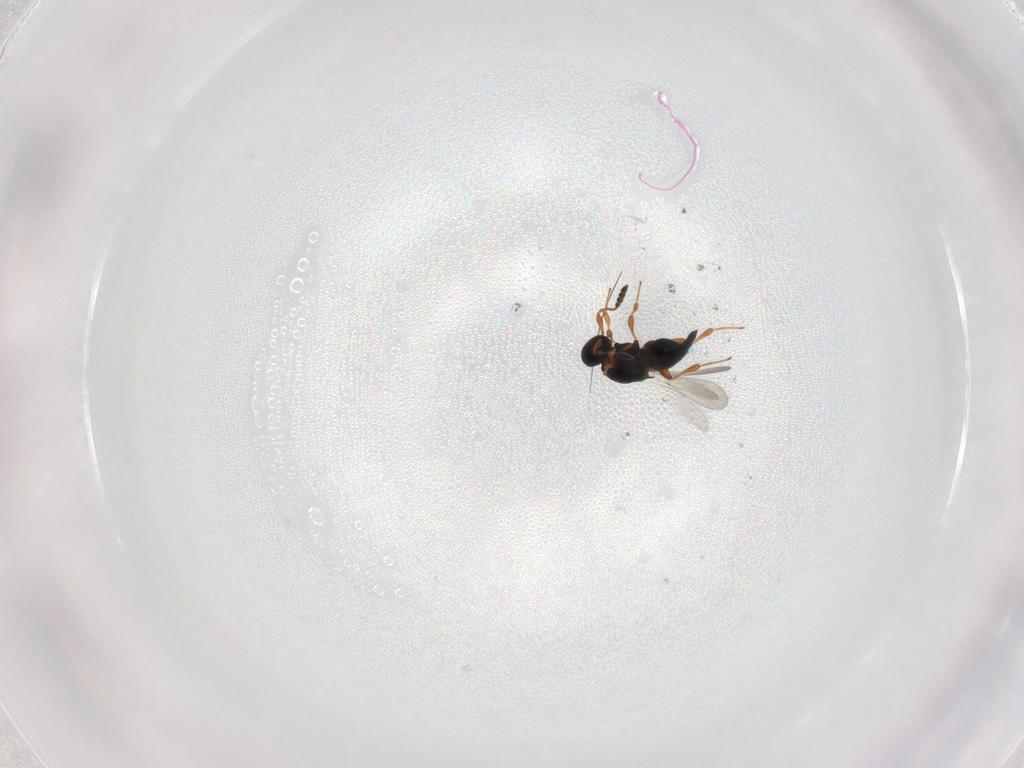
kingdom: Animalia
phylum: Arthropoda
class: Insecta
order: Hymenoptera
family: Platygastridae
